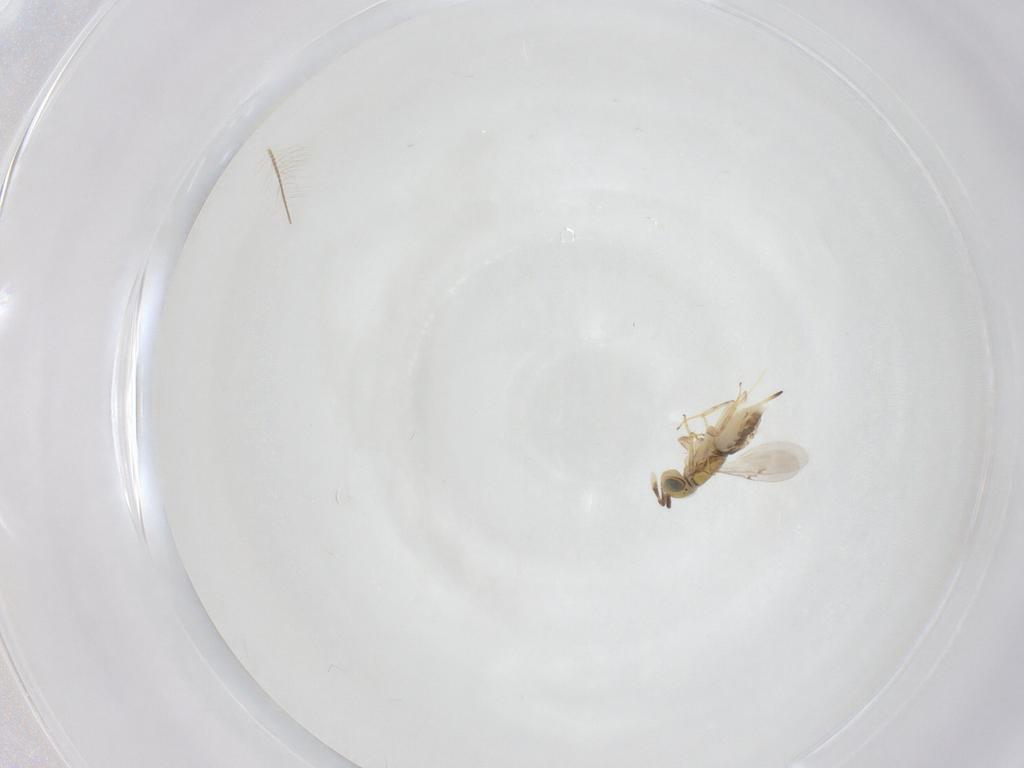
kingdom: Animalia
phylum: Arthropoda
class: Insecta
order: Hymenoptera
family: Encyrtidae
